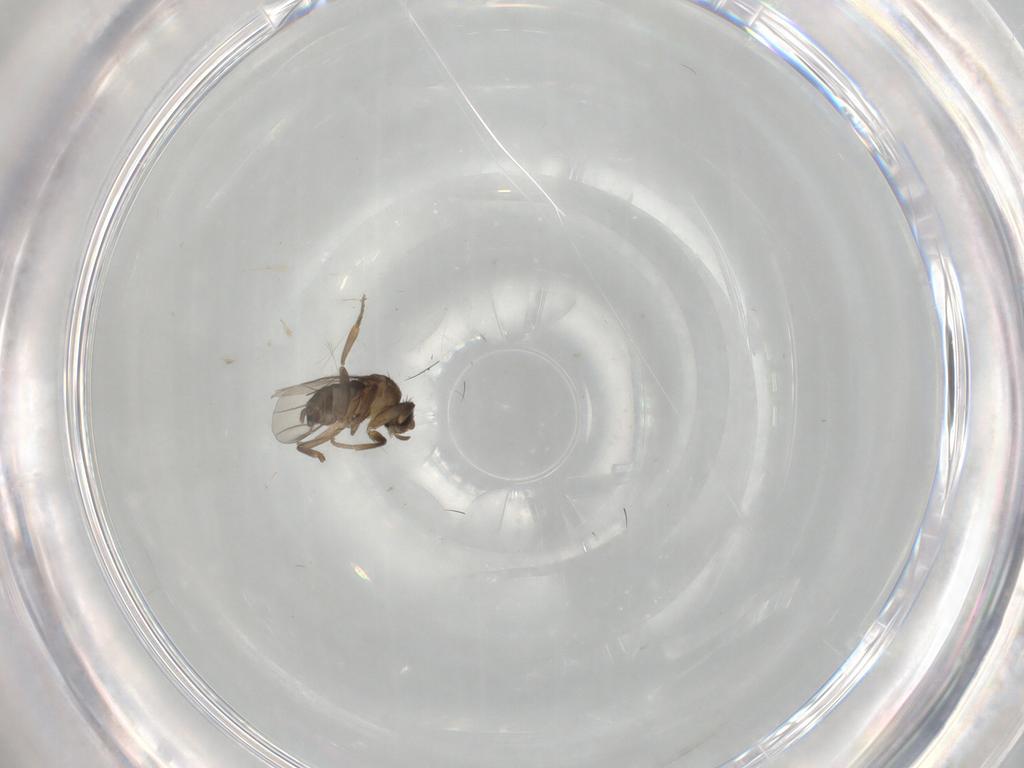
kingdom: Animalia
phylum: Arthropoda
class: Insecta
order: Diptera
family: Phoridae
